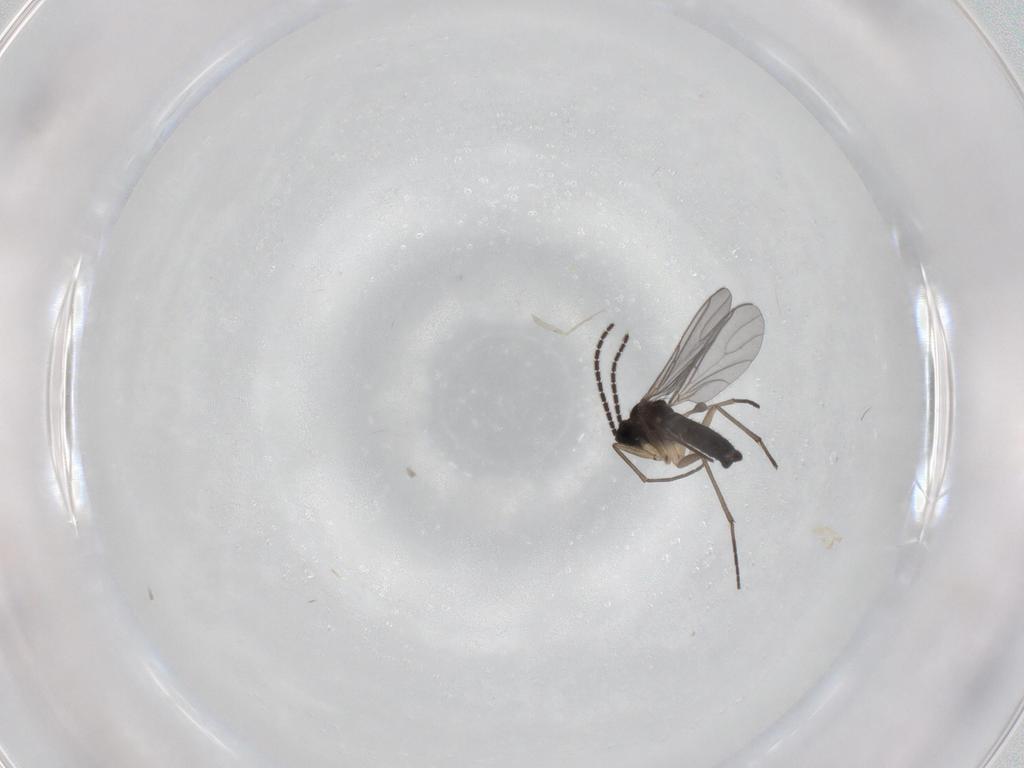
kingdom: Animalia
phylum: Arthropoda
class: Insecta
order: Diptera
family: Sciaridae
